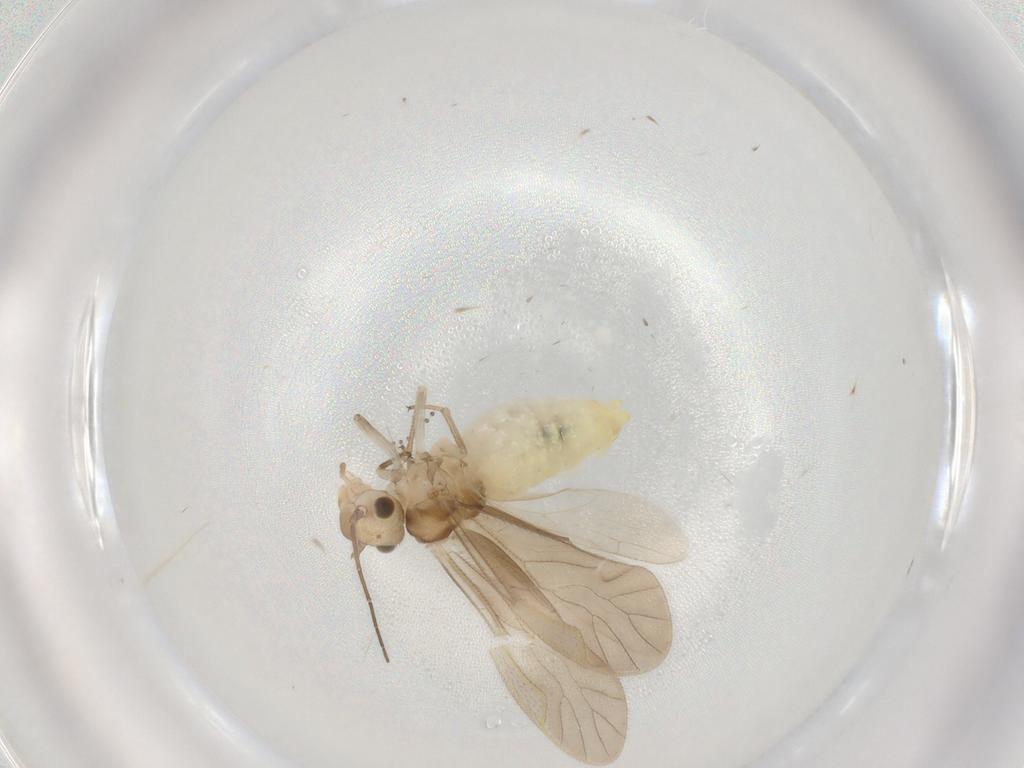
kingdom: Animalia
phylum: Arthropoda
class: Insecta
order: Psocodea
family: Caeciliusidae
